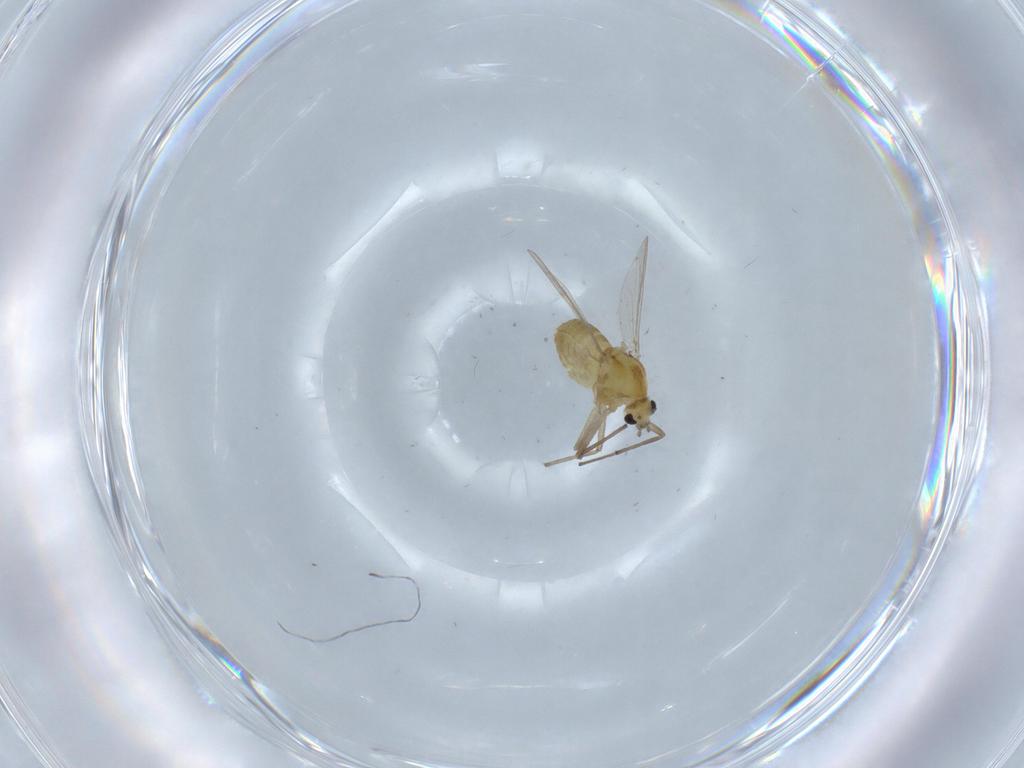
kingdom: Animalia
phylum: Arthropoda
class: Insecta
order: Diptera
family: Chironomidae
